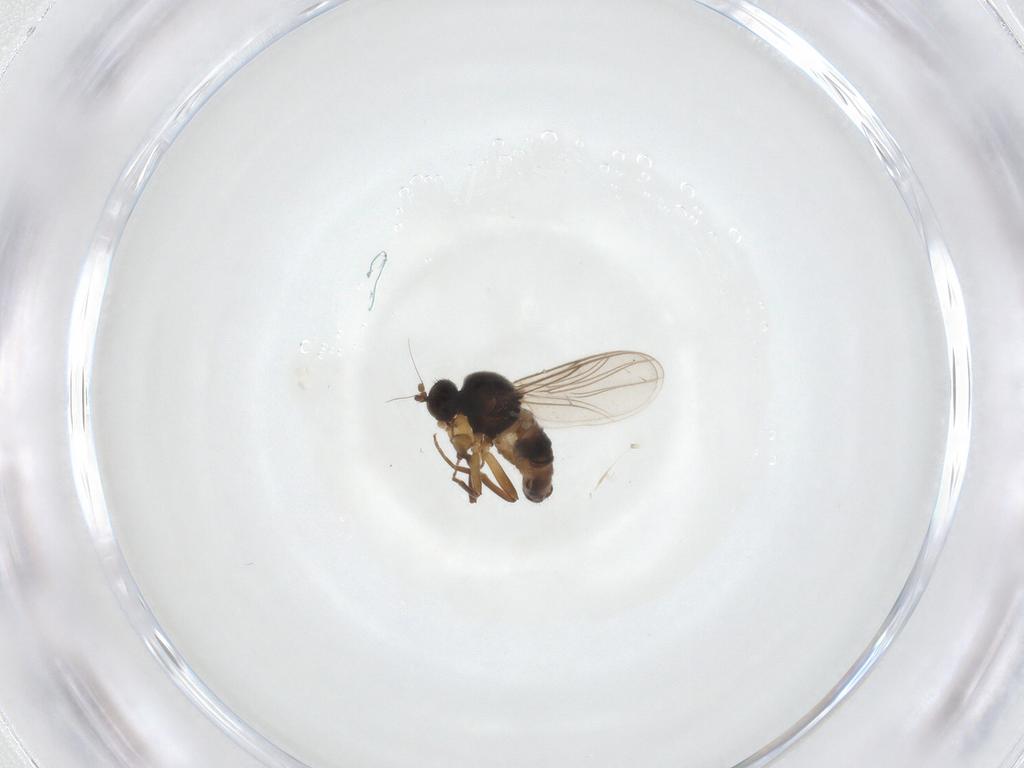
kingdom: Animalia
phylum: Arthropoda
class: Insecta
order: Diptera
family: Hybotidae
